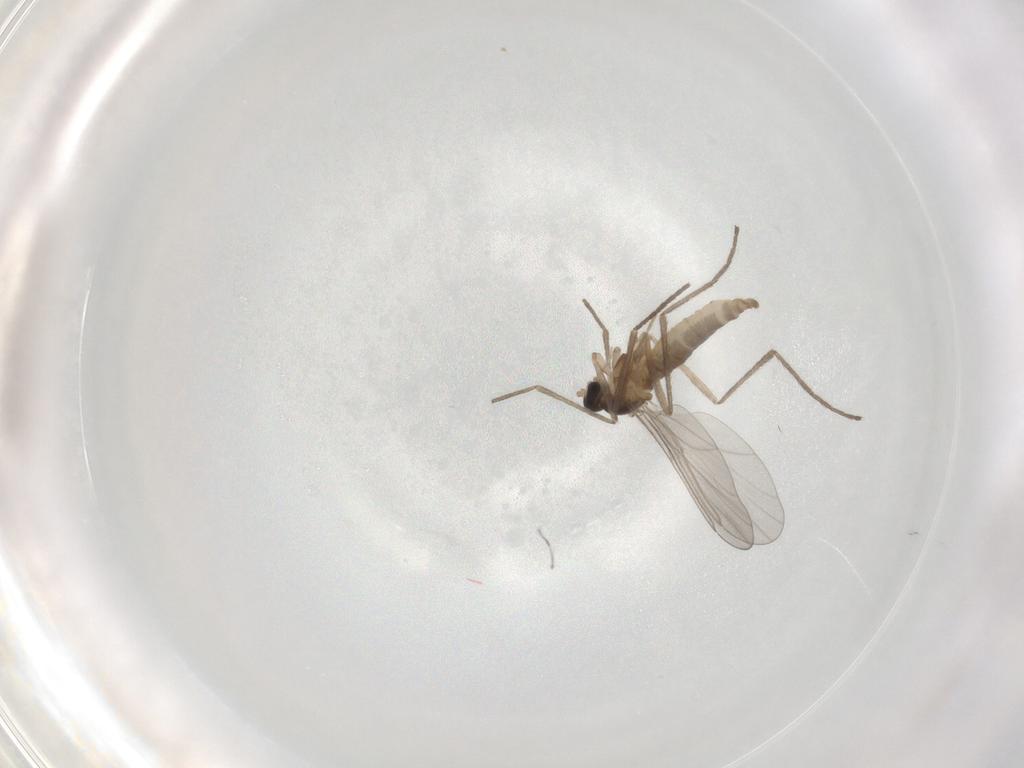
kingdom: Animalia
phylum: Arthropoda
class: Insecta
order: Diptera
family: Cecidomyiidae
